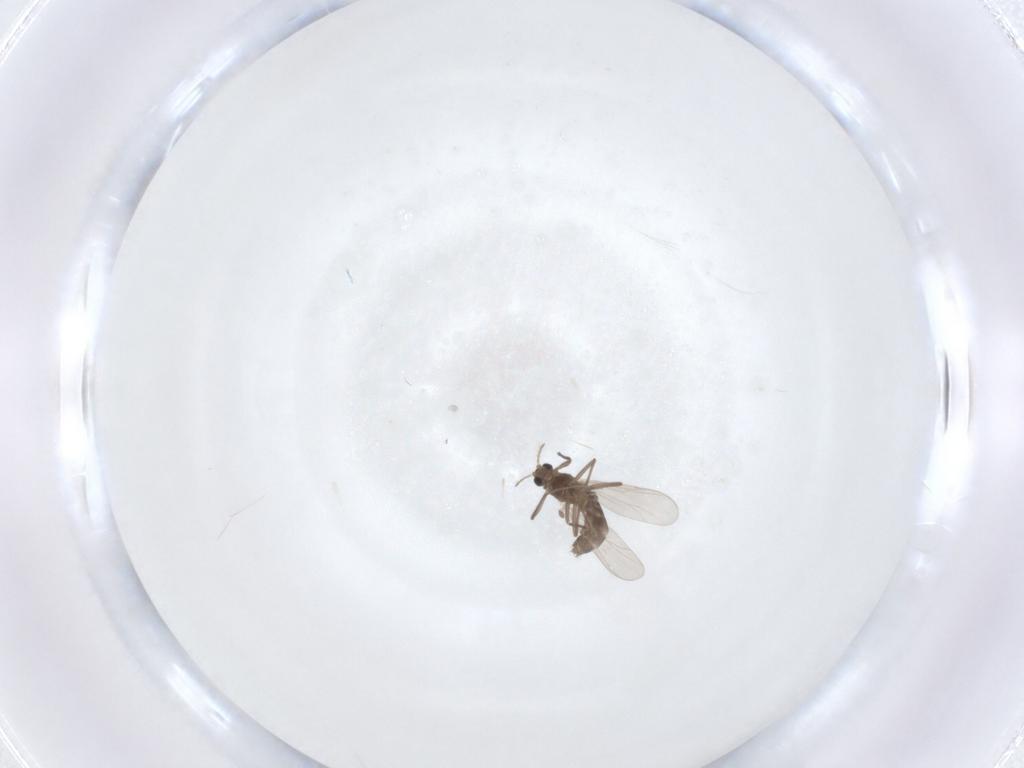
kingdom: Animalia
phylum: Arthropoda
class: Insecta
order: Diptera
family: Chironomidae
